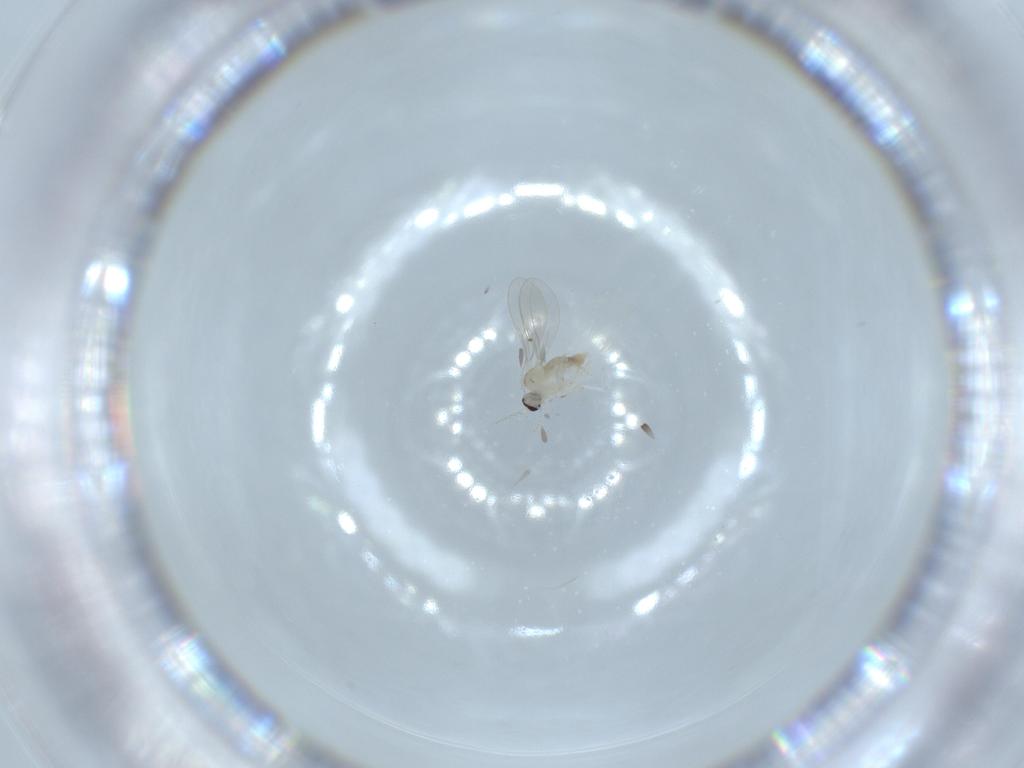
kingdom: Animalia
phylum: Arthropoda
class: Insecta
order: Diptera
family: Cecidomyiidae
